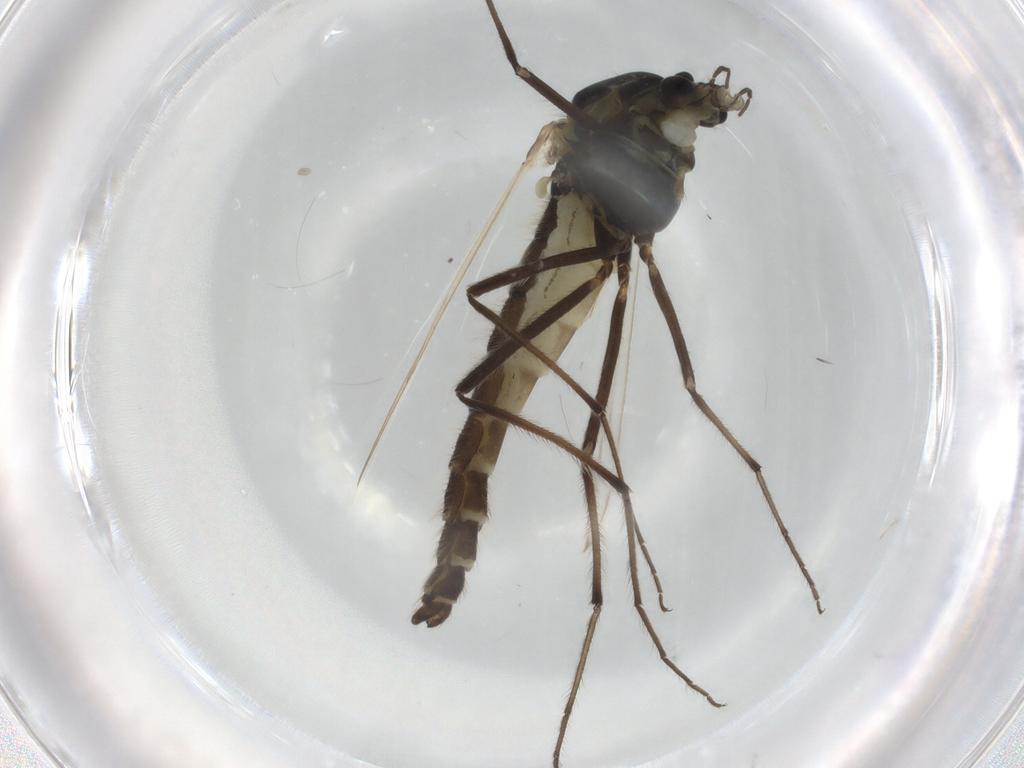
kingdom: Animalia
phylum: Arthropoda
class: Insecta
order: Diptera
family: Chironomidae
